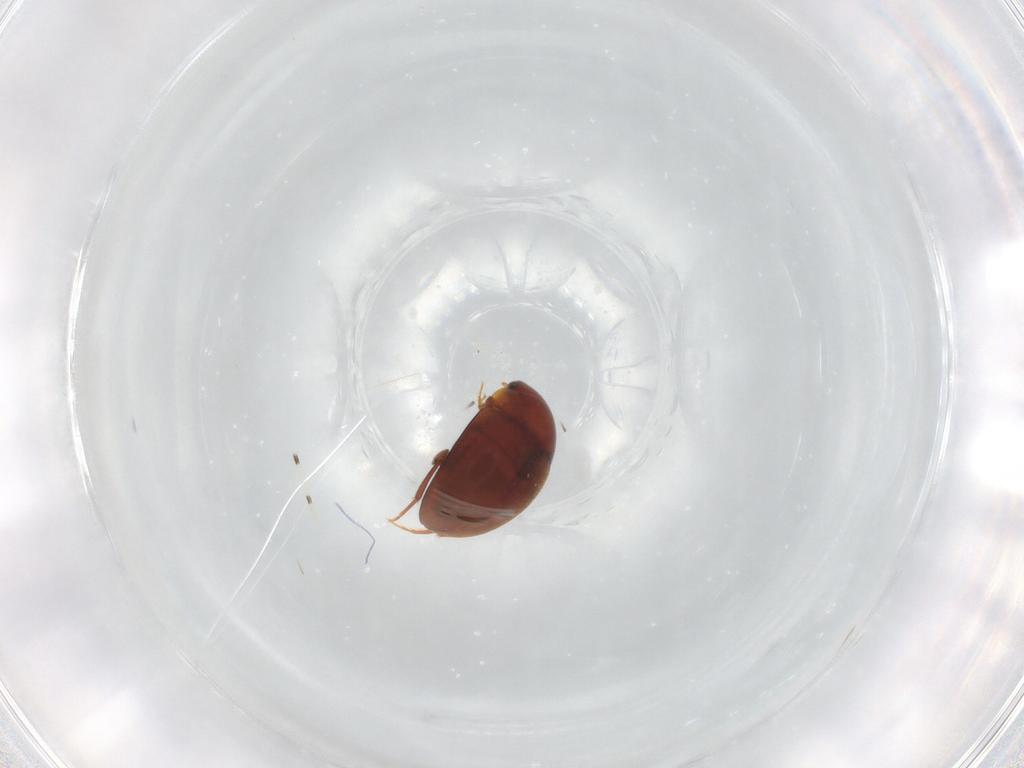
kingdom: Animalia
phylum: Arthropoda
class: Insecta
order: Coleoptera
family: Leiodidae
